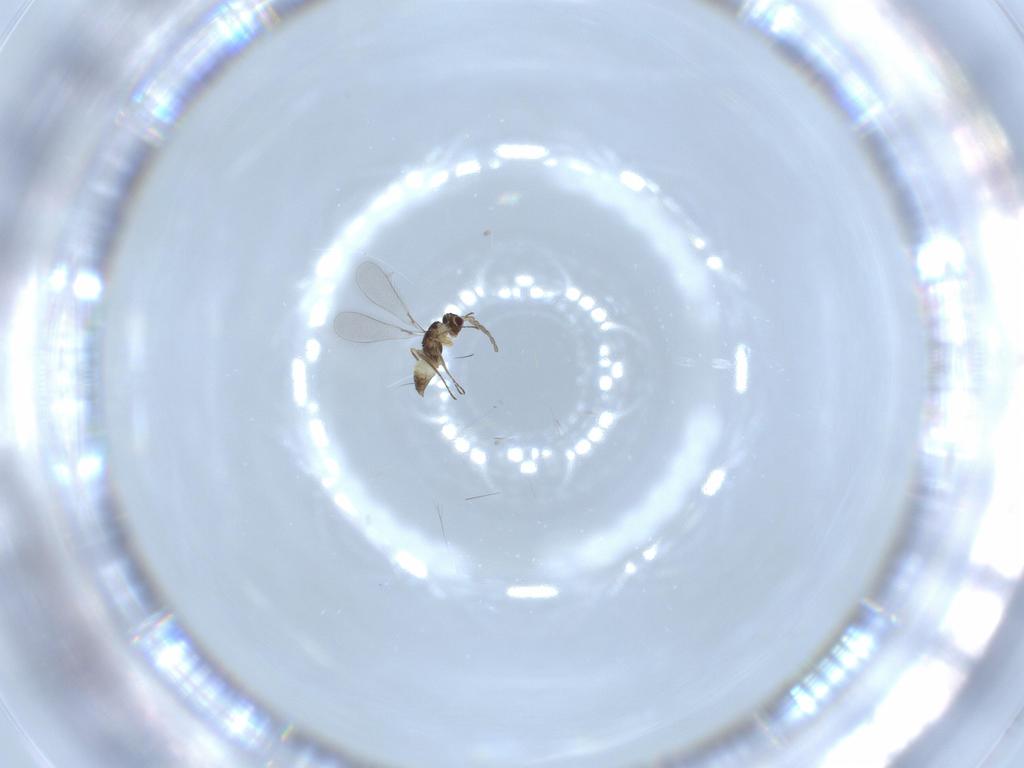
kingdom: Animalia
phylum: Arthropoda
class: Insecta
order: Hymenoptera
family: Mymaridae
